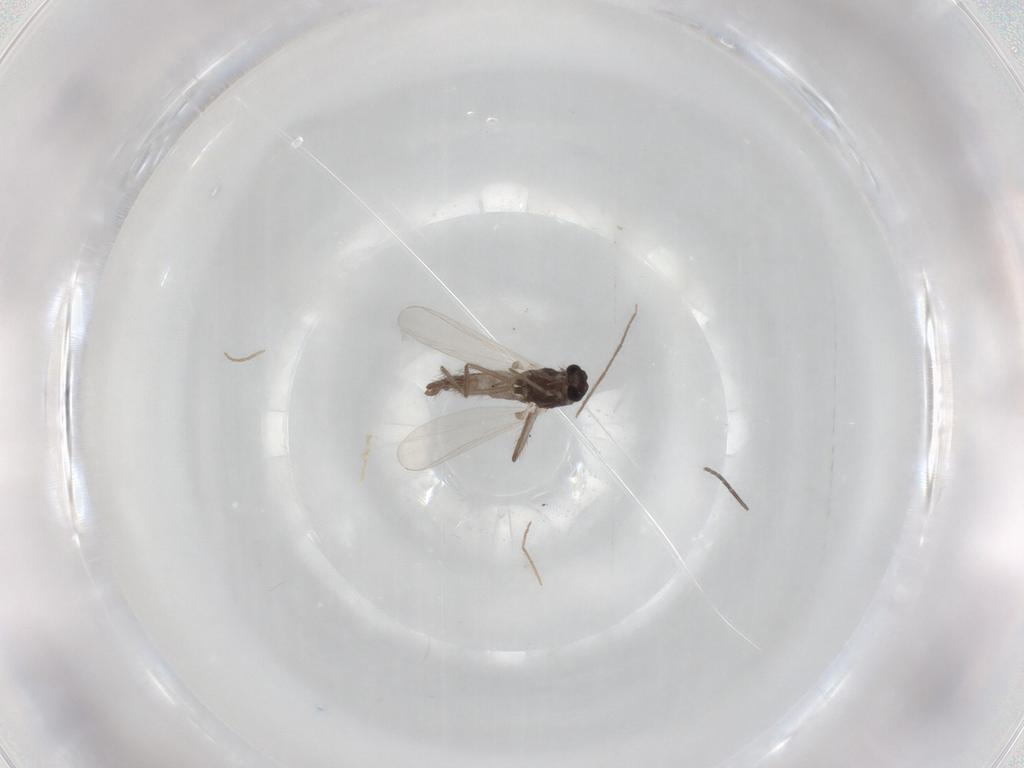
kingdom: Animalia
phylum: Arthropoda
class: Insecta
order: Diptera
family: Chironomidae
